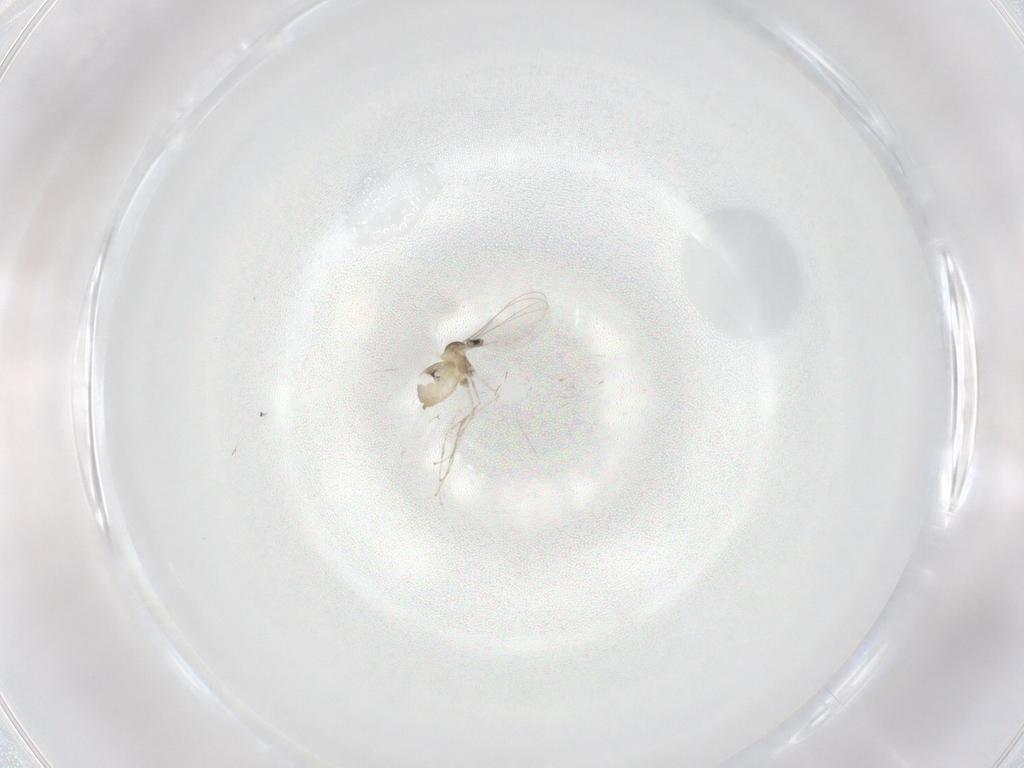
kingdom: Animalia
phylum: Arthropoda
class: Insecta
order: Diptera
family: Cecidomyiidae
